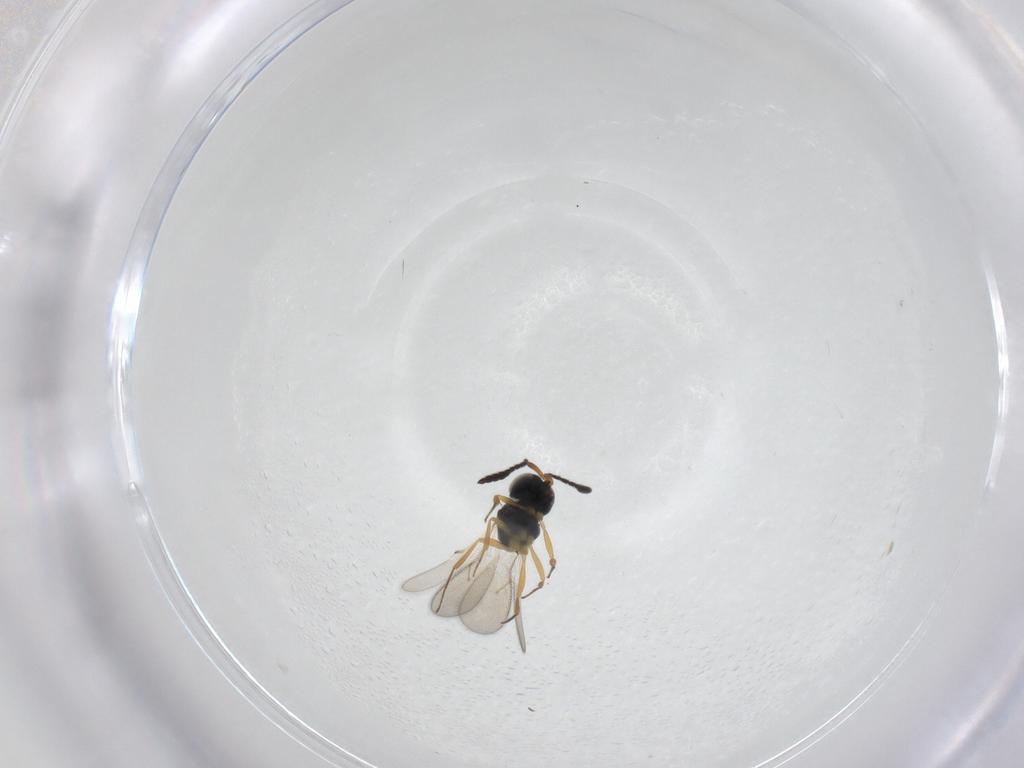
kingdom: Animalia
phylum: Arthropoda
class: Insecta
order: Hymenoptera
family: Scelionidae
